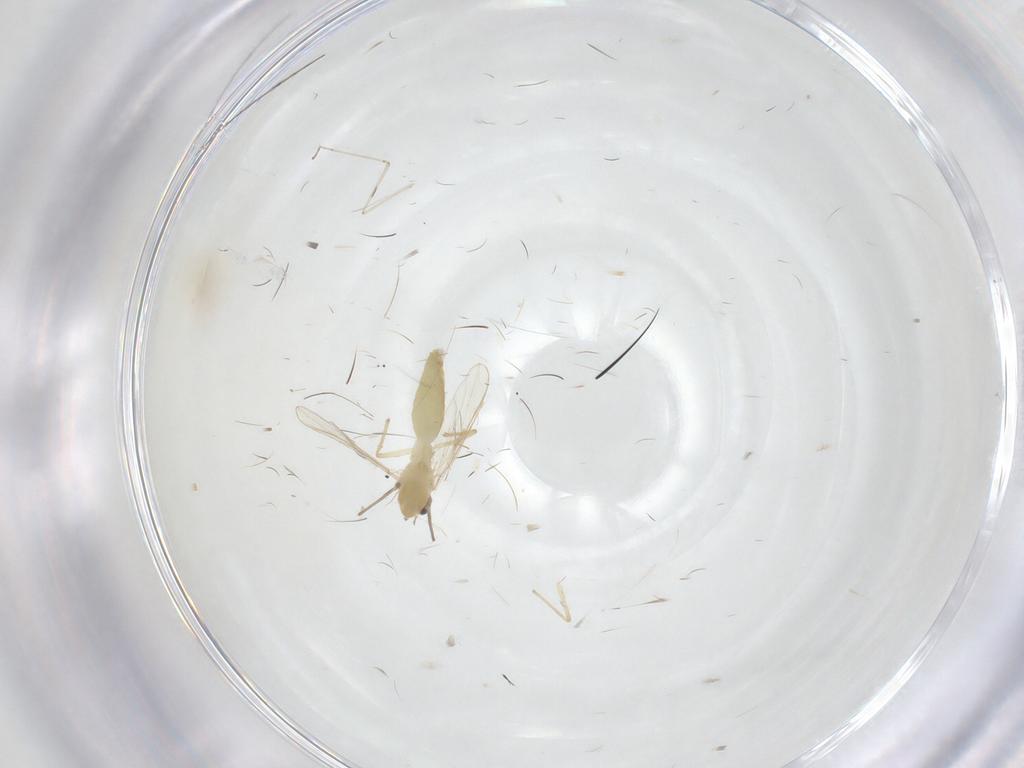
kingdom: Animalia
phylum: Arthropoda
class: Insecta
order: Diptera
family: Chironomidae
